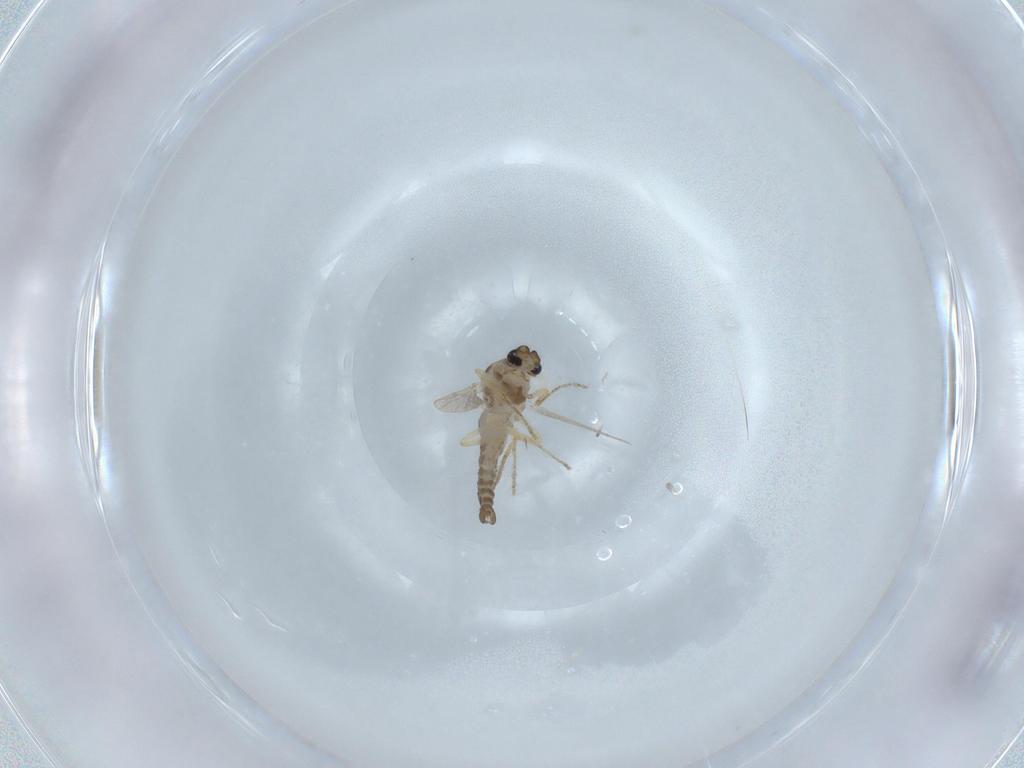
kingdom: Animalia
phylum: Arthropoda
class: Insecta
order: Diptera
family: Ceratopogonidae
